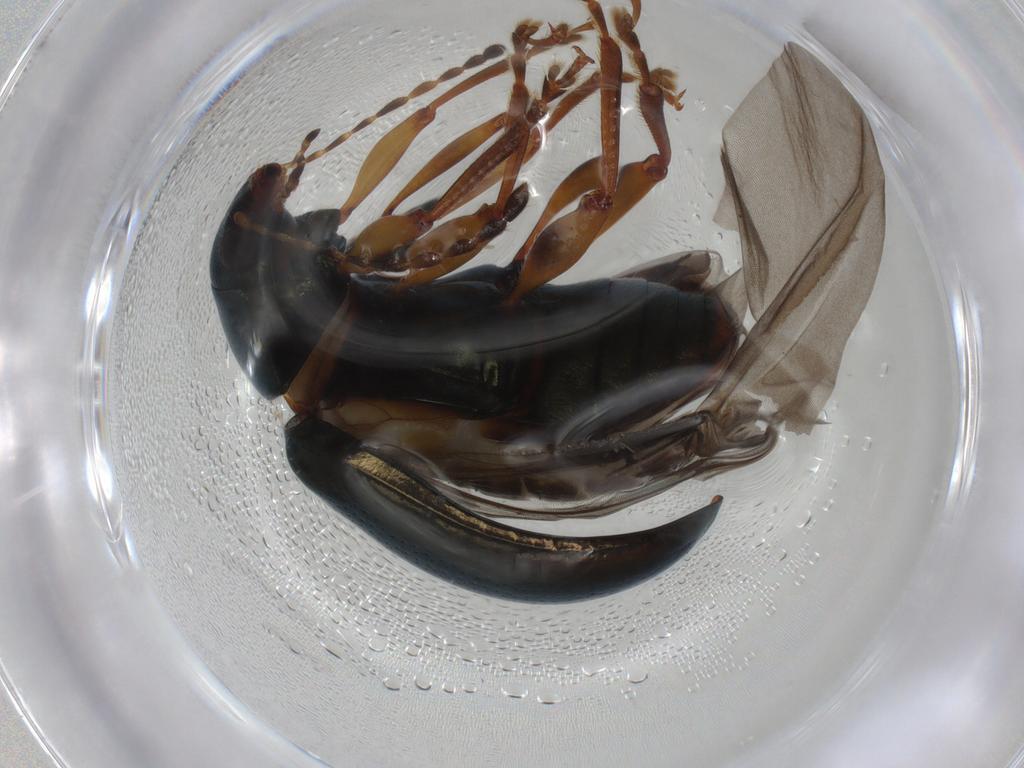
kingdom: Animalia
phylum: Arthropoda
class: Insecta
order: Coleoptera
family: Chrysomelidae
